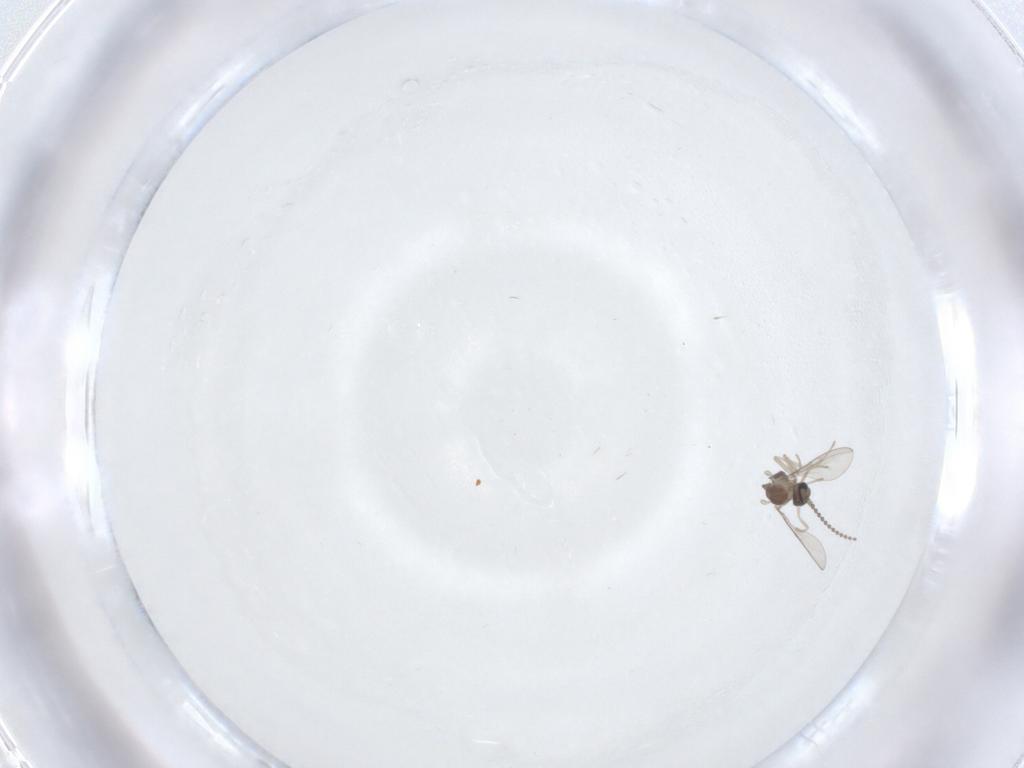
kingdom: Animalia
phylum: Arthropoda
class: Insecta
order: Diptera
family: Cecidomyiidae
